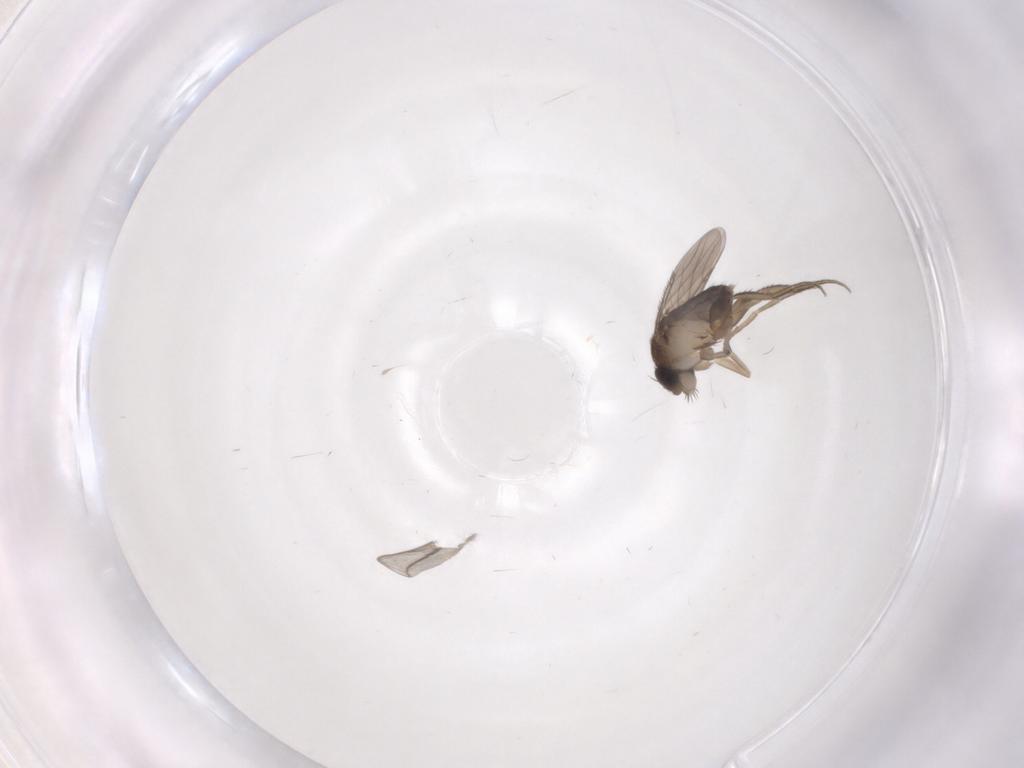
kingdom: Animalia
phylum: Arthropoda
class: Insecta
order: Diptera
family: Phoridae
